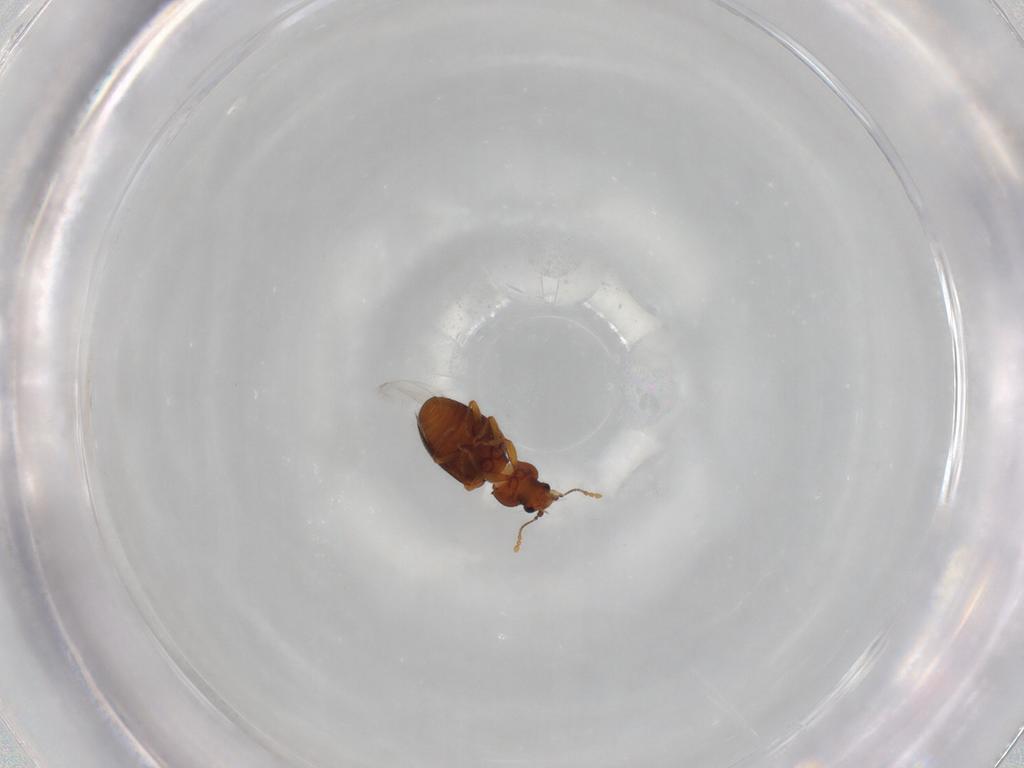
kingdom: Animalia
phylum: Arthropoda
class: Insecta
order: Coleoptera
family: Latridiidae
